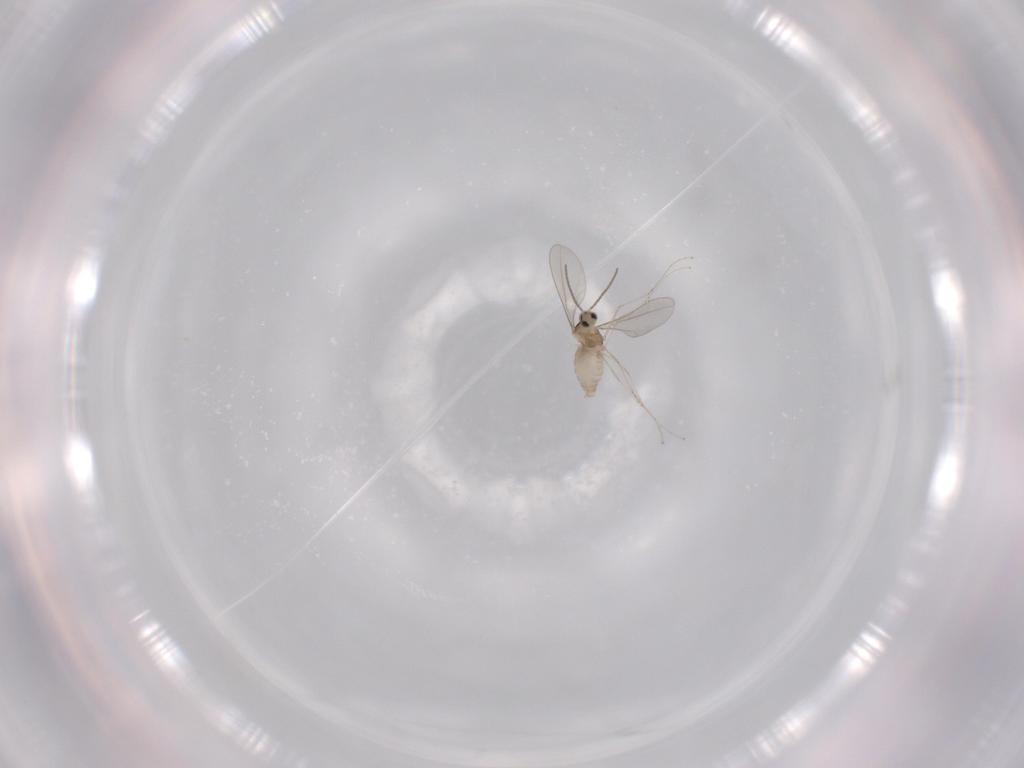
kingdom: Animalia
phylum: Arthropoda
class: Insecta
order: Diptera
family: Cecidomyiidae
